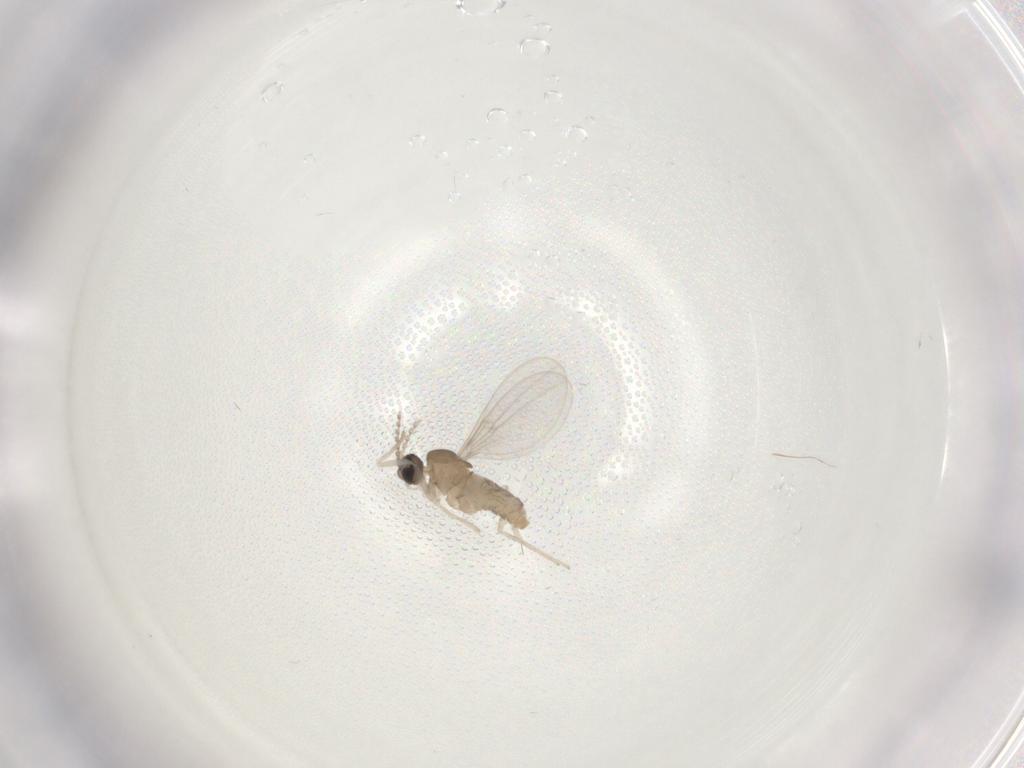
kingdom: Animalia
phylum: Arthropoda
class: Insecta
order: Diptera
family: Cecidomyiidae
